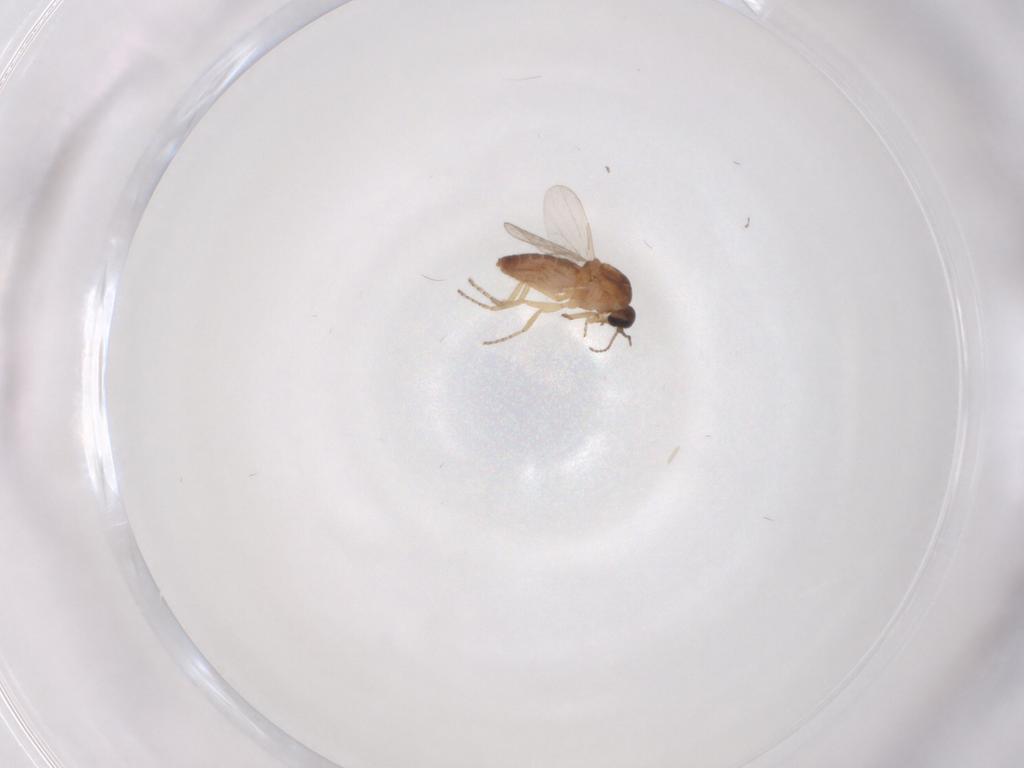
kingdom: Animalia
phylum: Arthropoda
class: Insecta
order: Diptera
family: Ceratopogonidae
